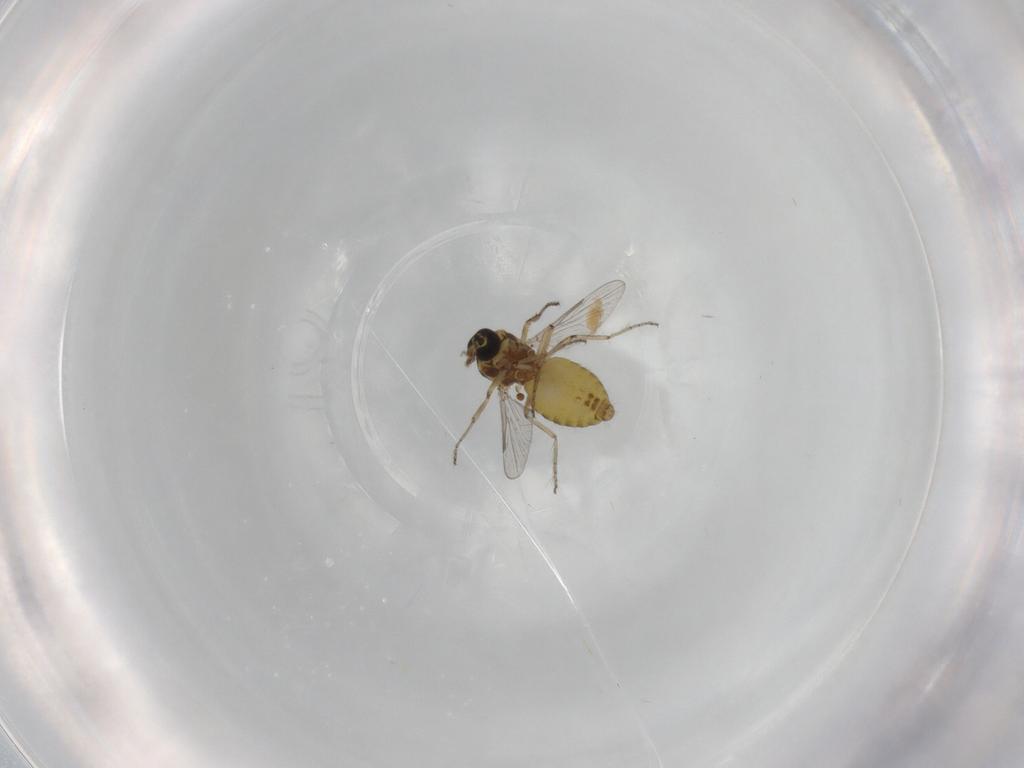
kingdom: Animalia
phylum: Arthropoda
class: Insecta
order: Diptera
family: Ceratopogonidae
